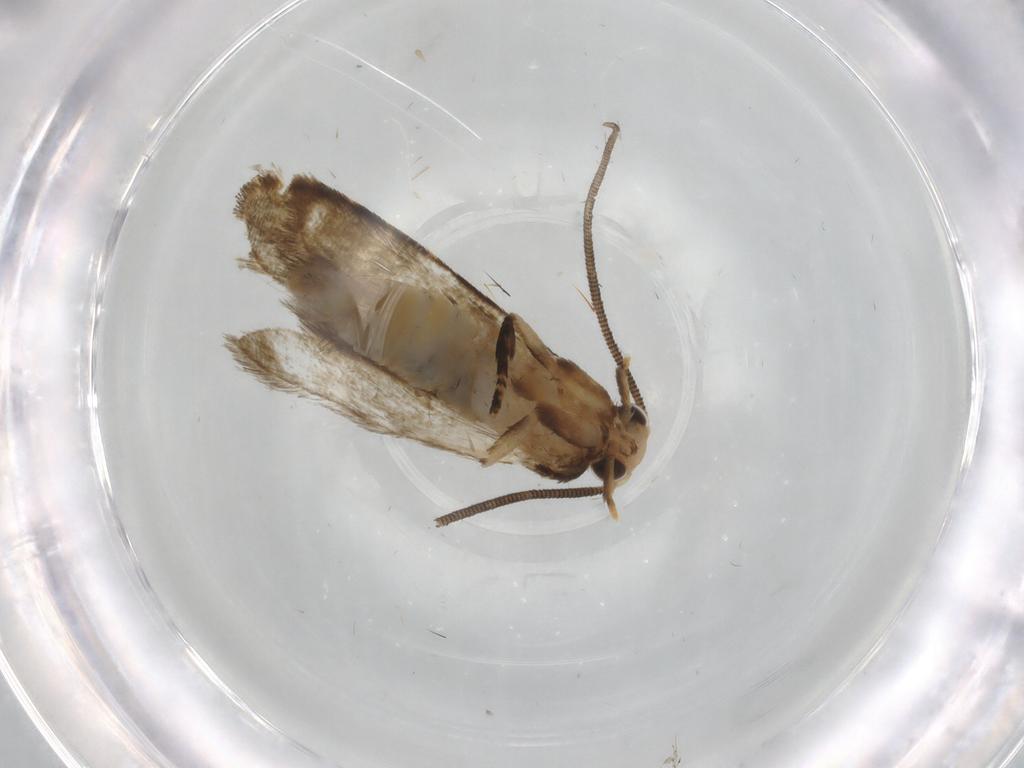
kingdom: Animalia
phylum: Arthropoda
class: Insecta
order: Lepidoptera
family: Tineidae
